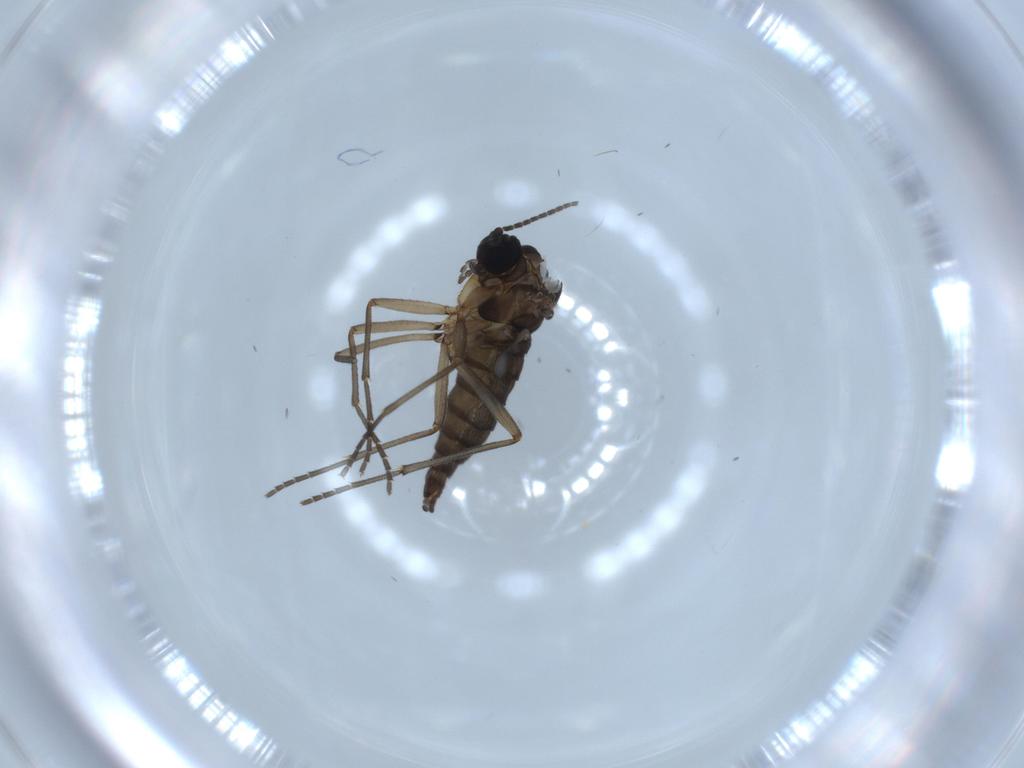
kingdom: Animalia
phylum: Arthropoda
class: Insecta
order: Diptera
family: Sciaridae
